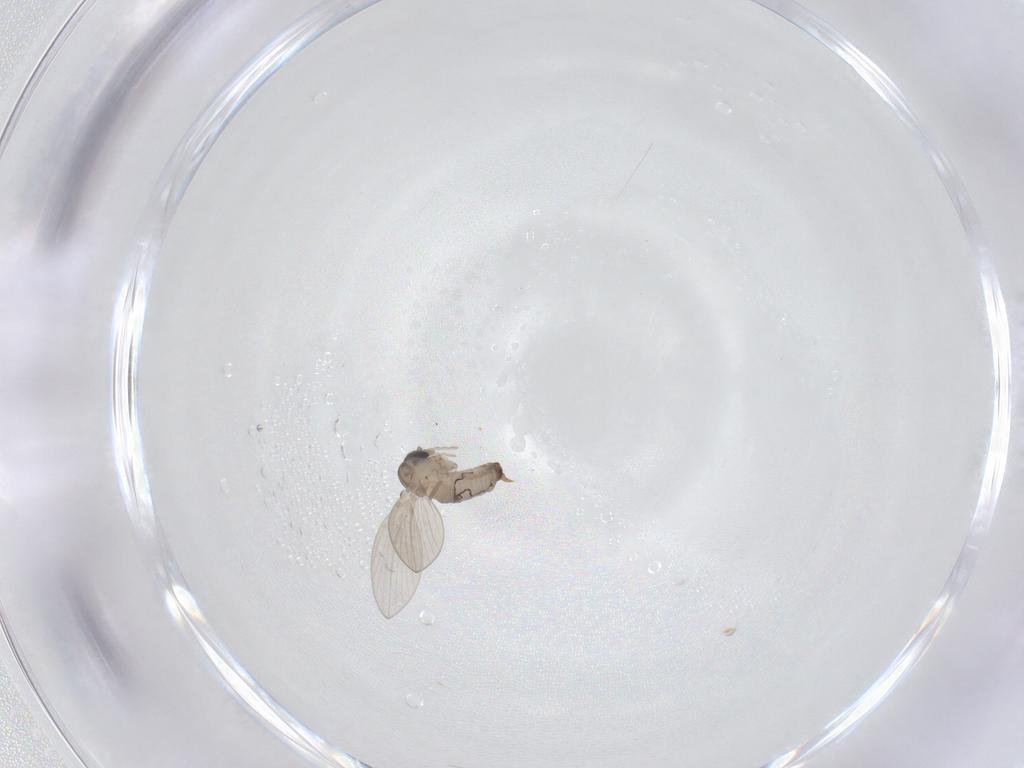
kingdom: Animalia
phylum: Arthropoda
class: Insecta
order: Diptera
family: Psychodidae
